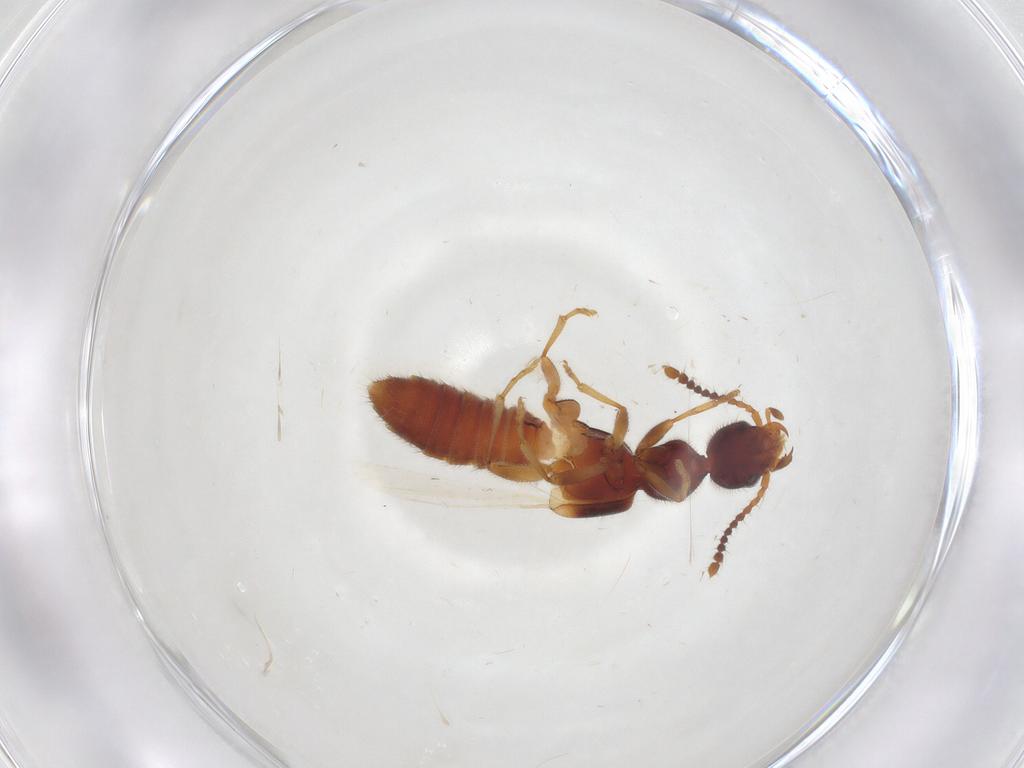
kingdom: Animalia
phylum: Arthropoda
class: Insecta
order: Coleoptera
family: Staphylinidae
